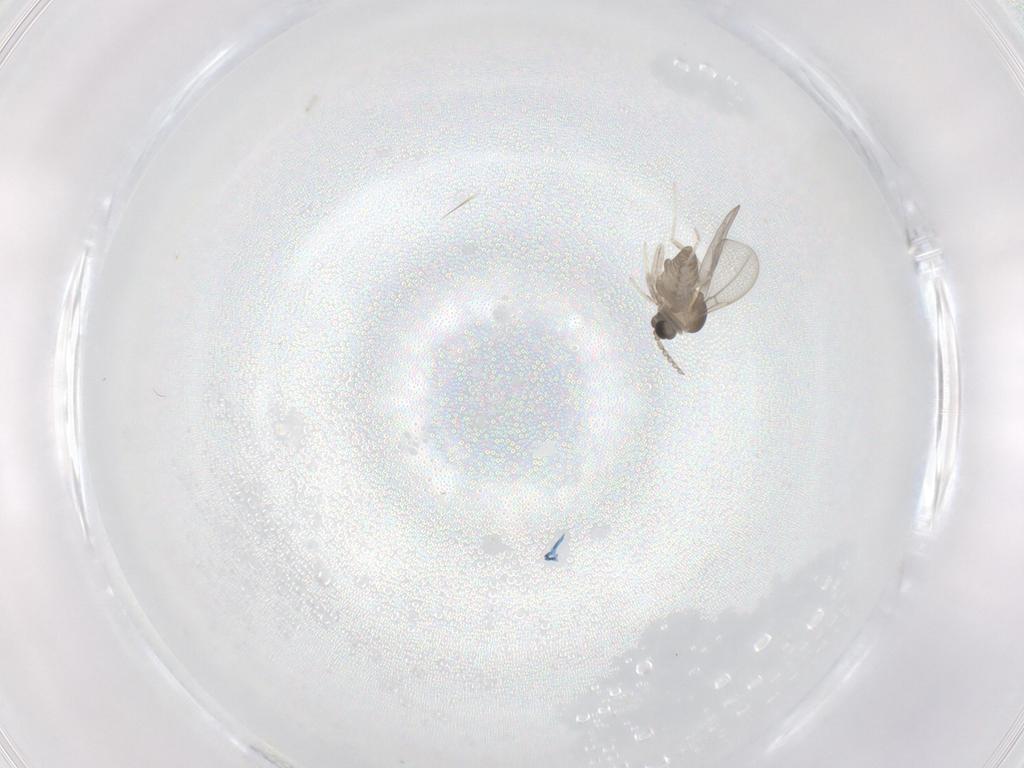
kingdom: Animalia
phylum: Arthropoda
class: Insecta
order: Diptera
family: Cecidomyiidae
